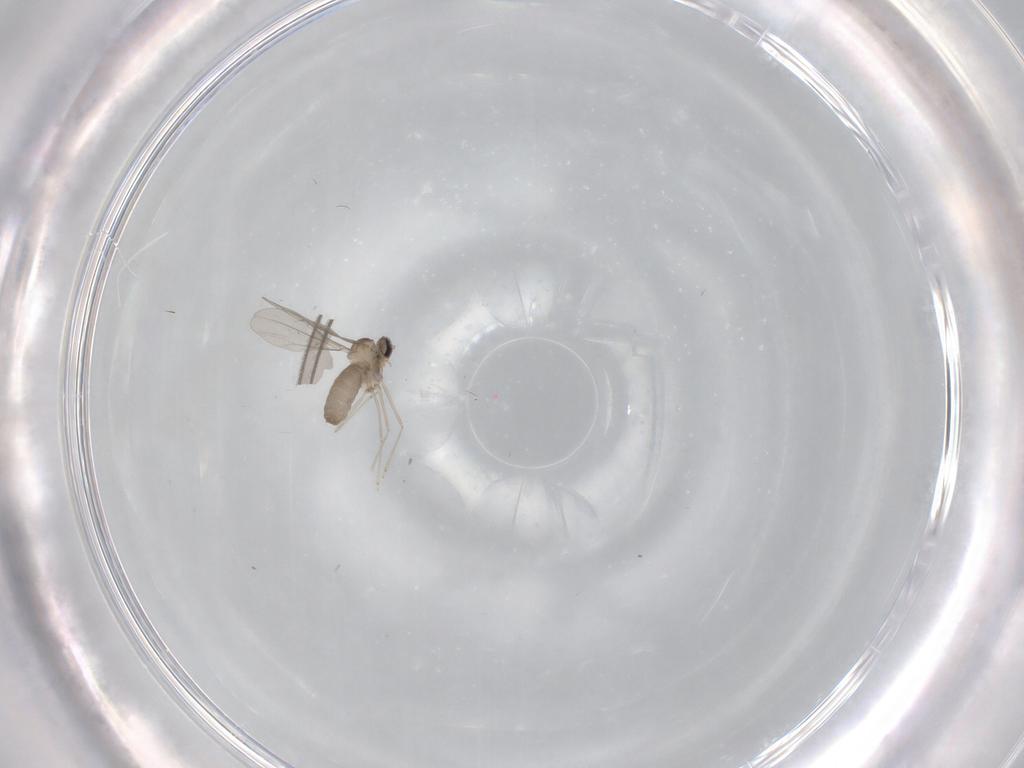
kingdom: Animalia
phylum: Arthropoda
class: Insecta
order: Diptera
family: Cecidomyiidae
